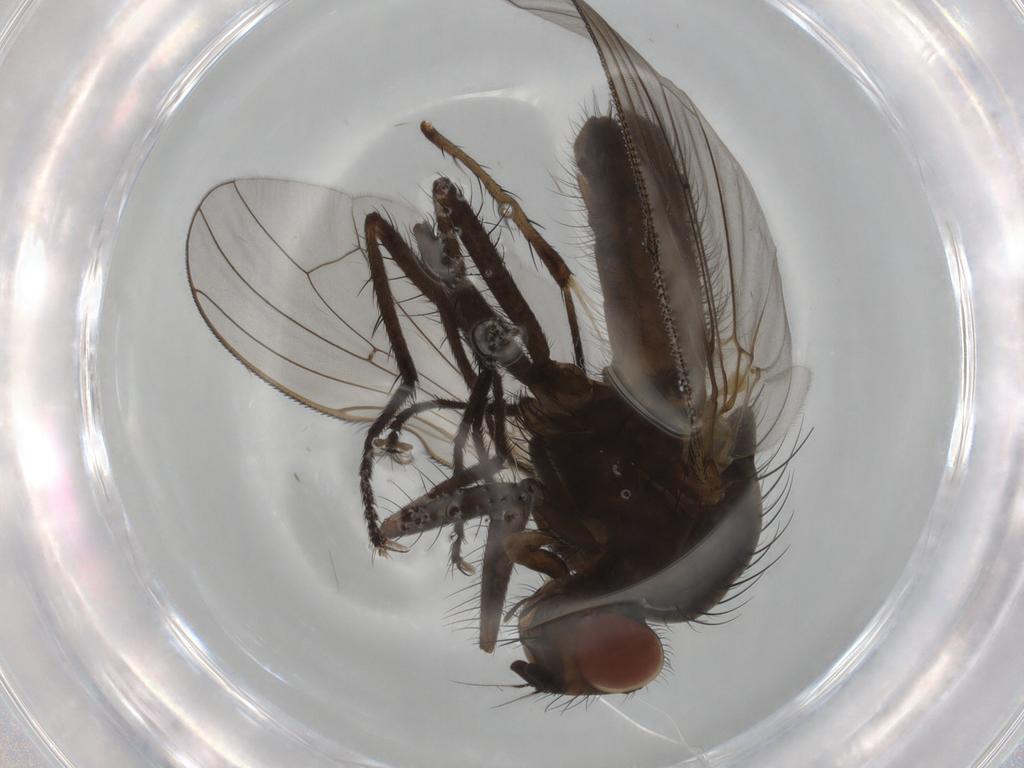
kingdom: Animalia
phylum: Arthropoda
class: Insecta
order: Diptera
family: Anthomyiidae
